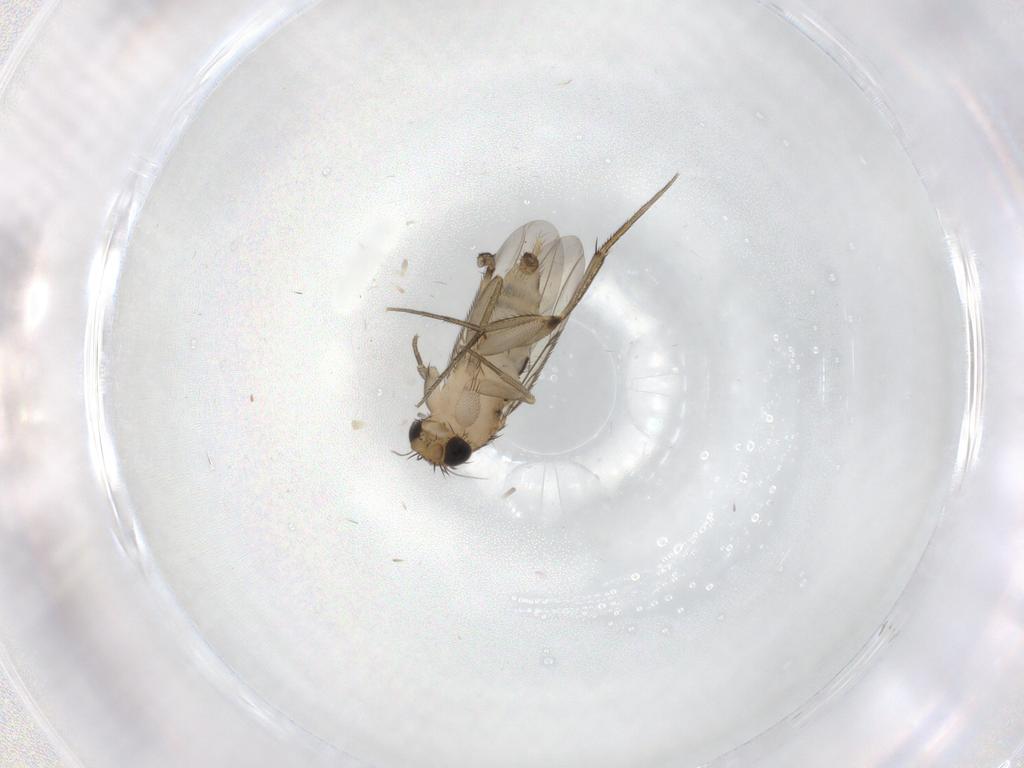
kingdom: Animalia
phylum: Arthropoda
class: Insecta
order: Diptera
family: Phoridae
